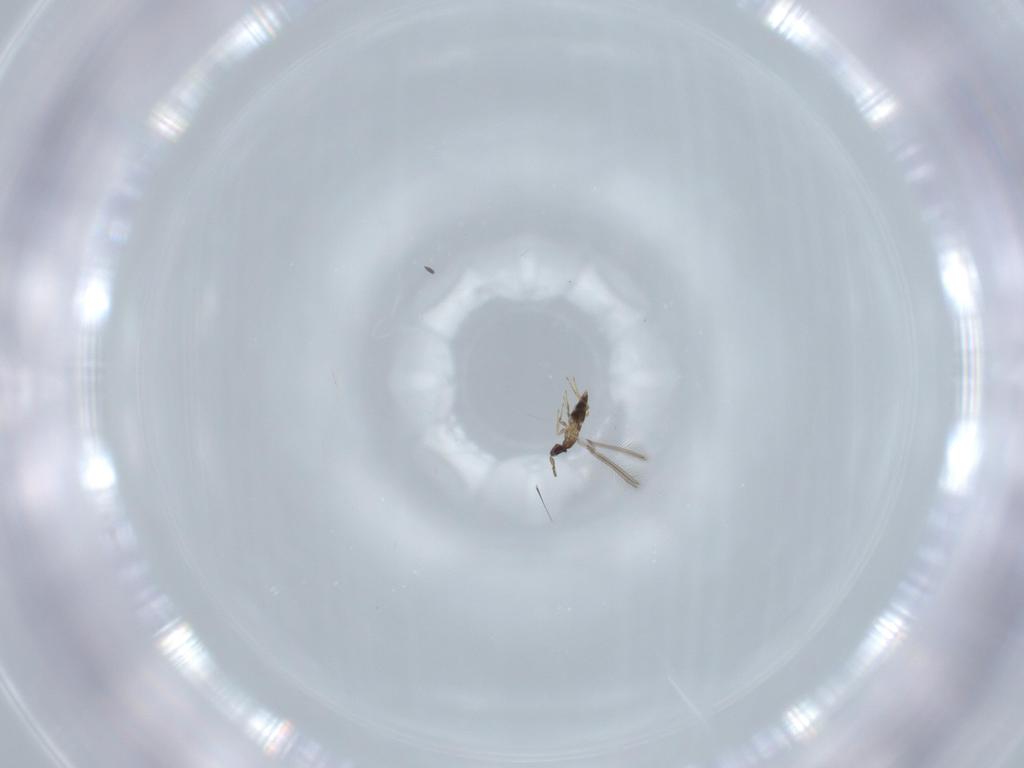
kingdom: Animalia
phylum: Arthropoda
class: Insecta
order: Hymenoptera
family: Mymaridae
